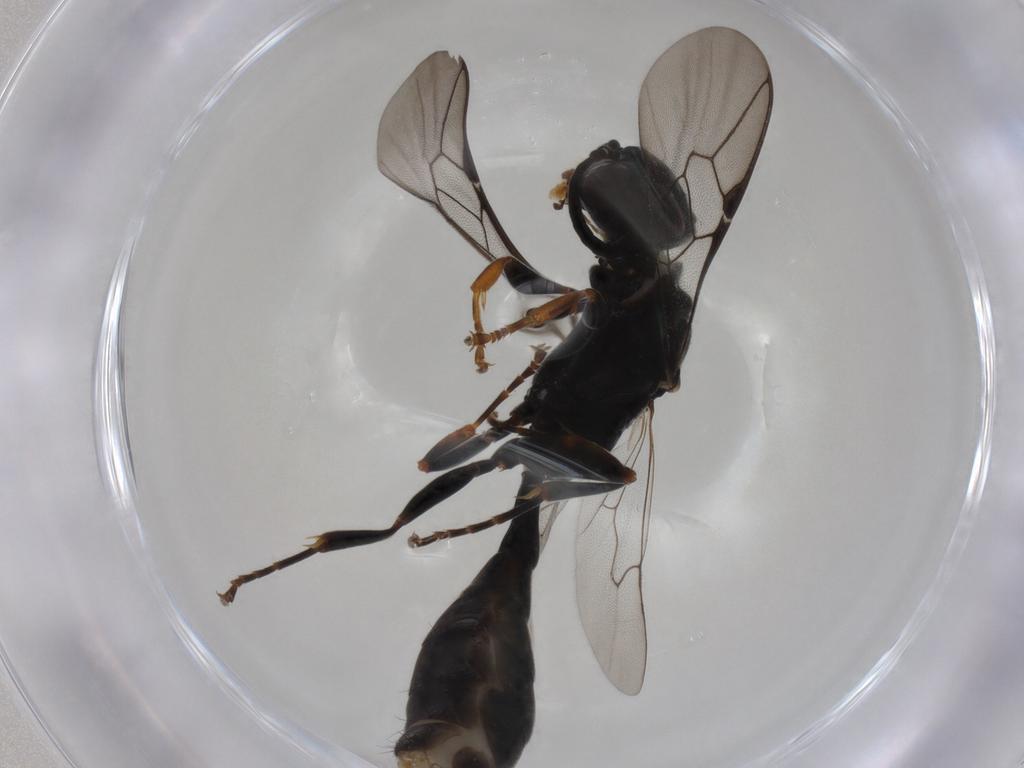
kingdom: Animalia
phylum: Arthropoda
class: Insecta
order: Hymenoptera
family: Crabronidae
